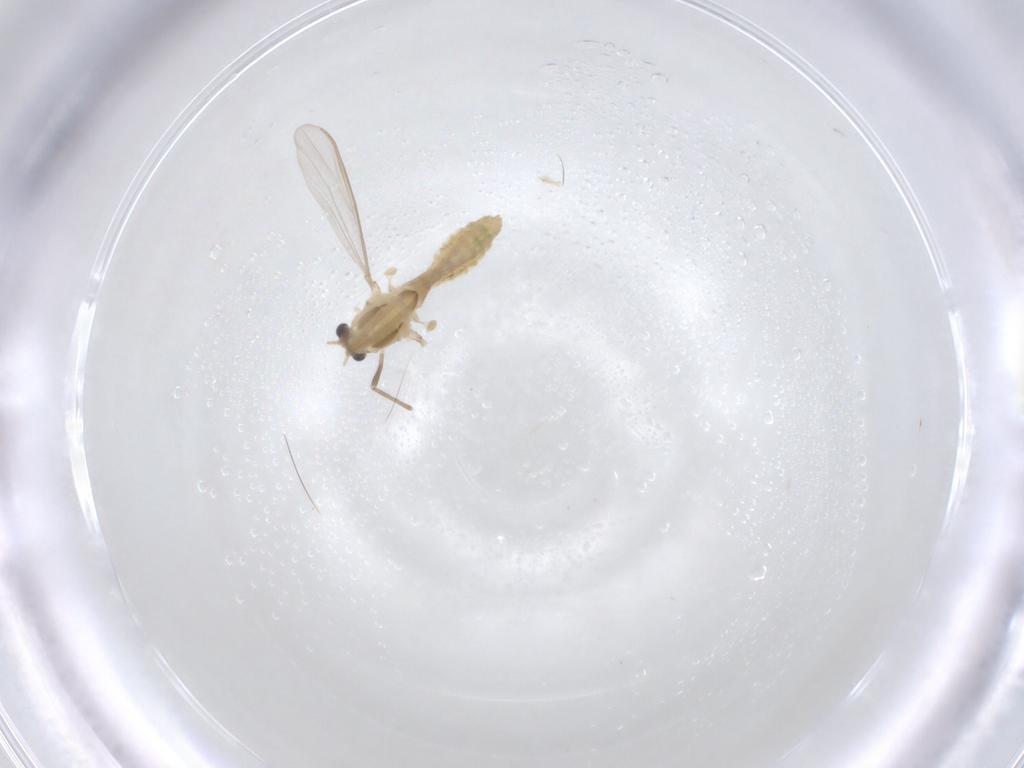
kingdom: Animalia
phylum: Arthropoda
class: Insecta
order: Diptera
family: Chironomidae
